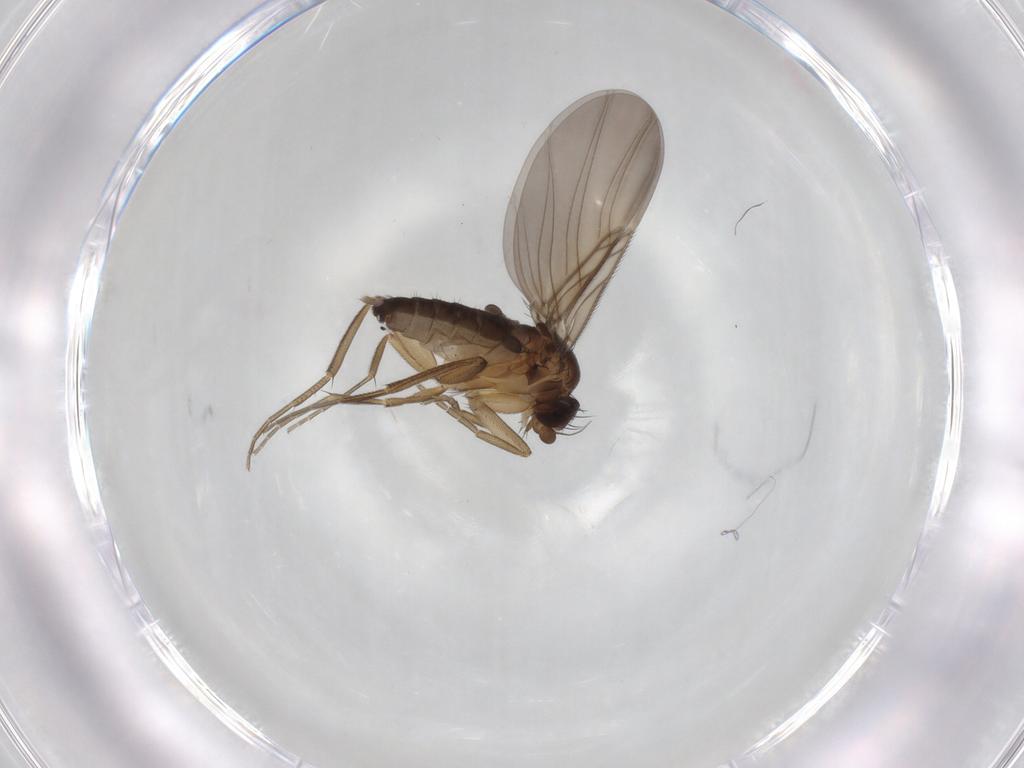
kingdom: Animalia
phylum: Arthropoda
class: Insecta
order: Diptera
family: Phoridae
